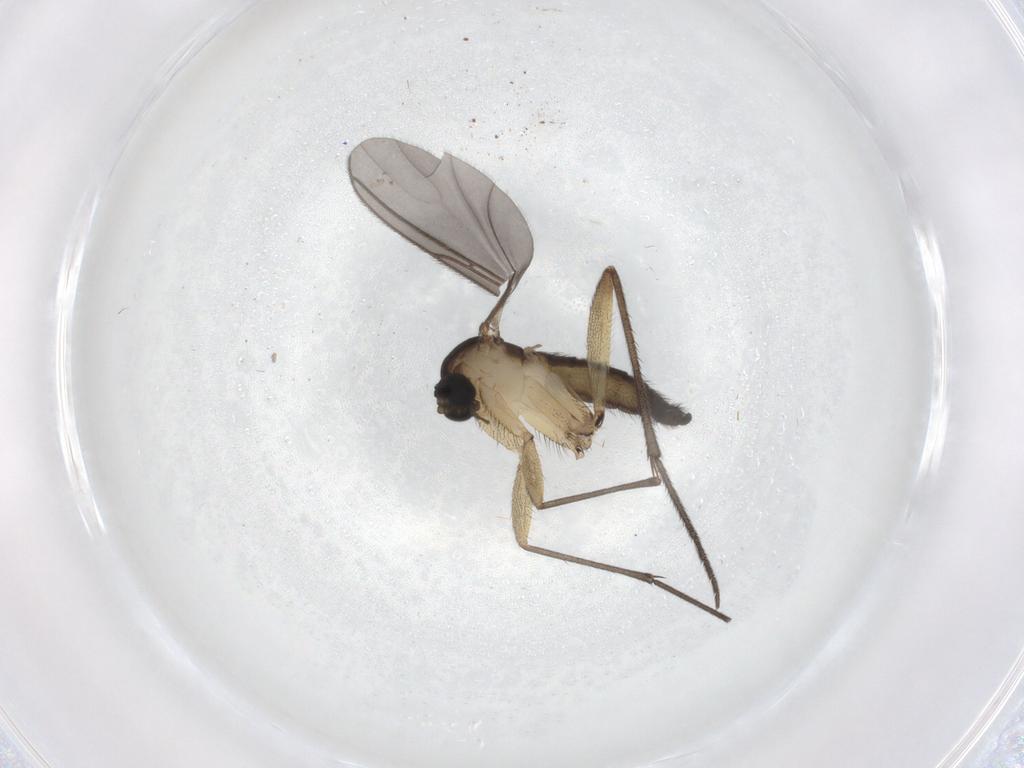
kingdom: Animalia
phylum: Arthropoda
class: Insecta
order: Diptera
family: Sciaridae
